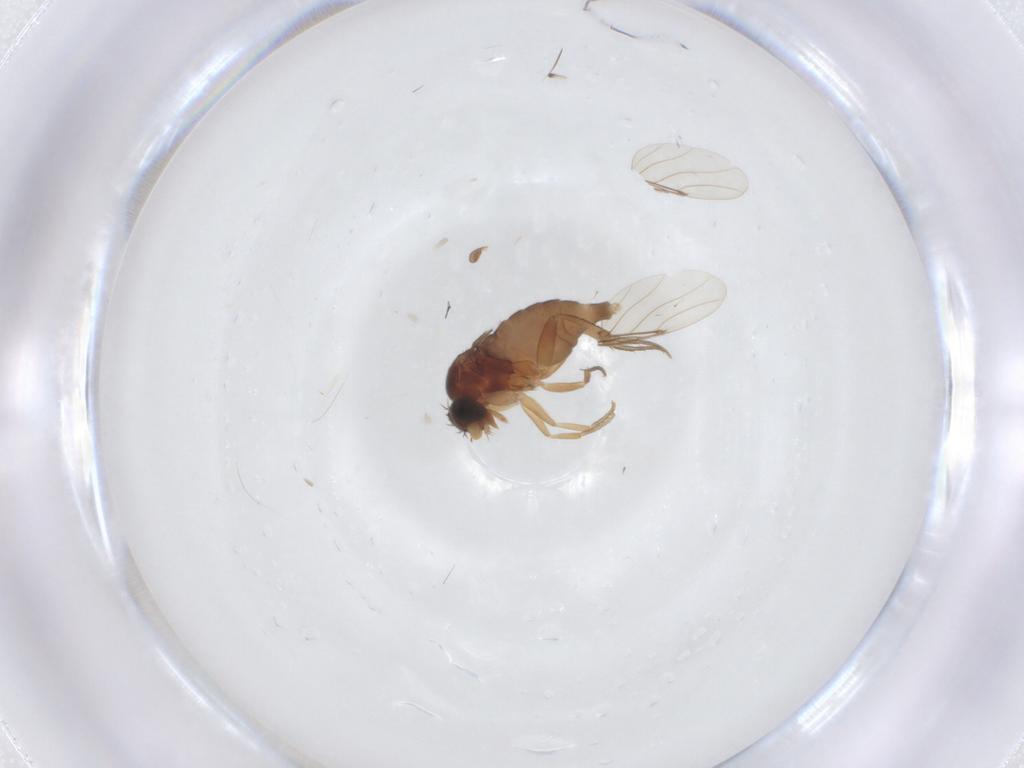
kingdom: Animalia
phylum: Arthropoda
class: Insecta
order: Diptera
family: Phoridae
